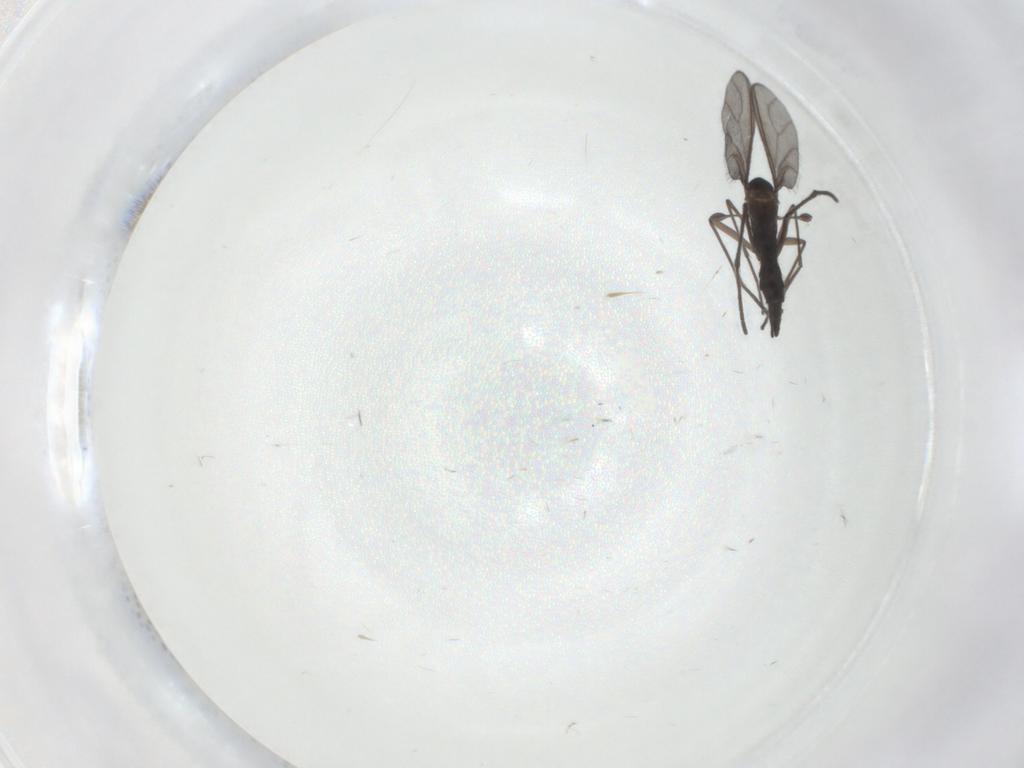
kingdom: Animalia
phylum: Arthropoda
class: Insecta
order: Diptera
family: Sciaridae
